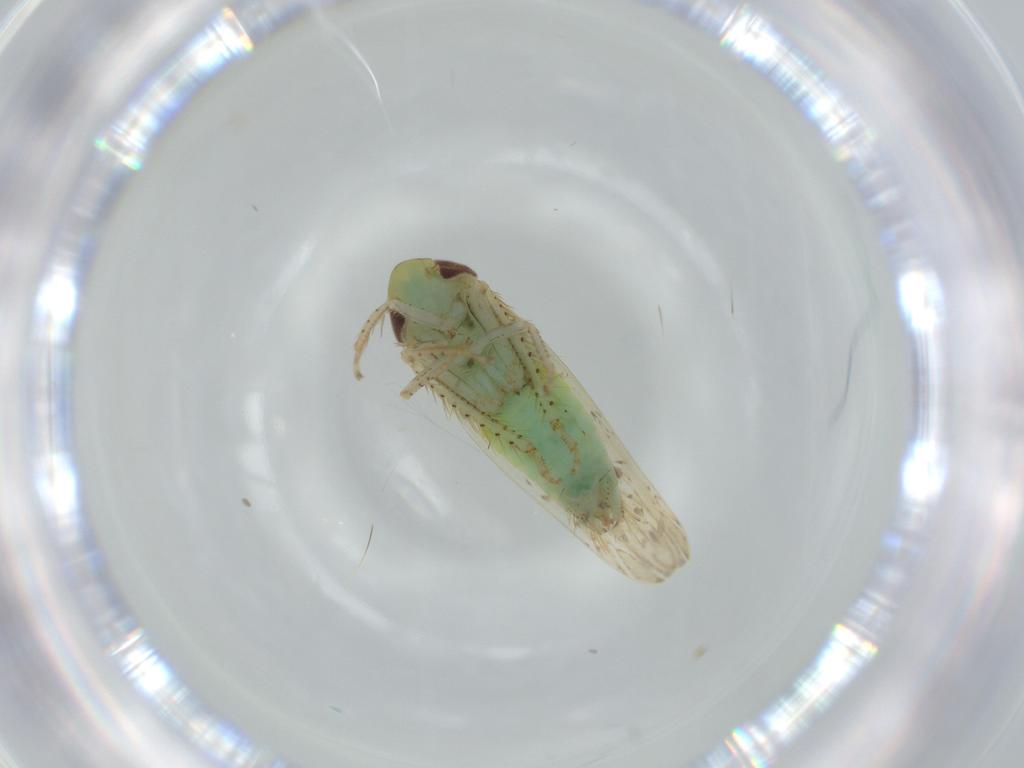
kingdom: Animalia
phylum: Arthropoda
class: Insecta
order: Hemiptera
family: Cicadellidae
